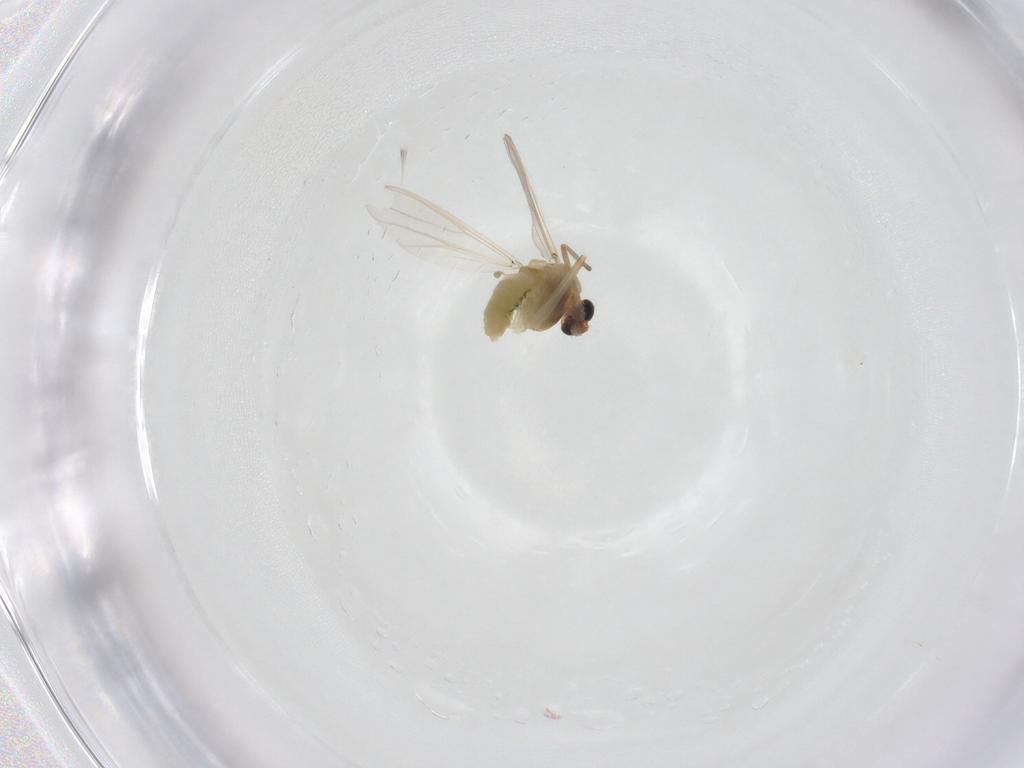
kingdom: Animalia
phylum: Arthropoda
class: Insecta
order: Diptera
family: Chironomidae
